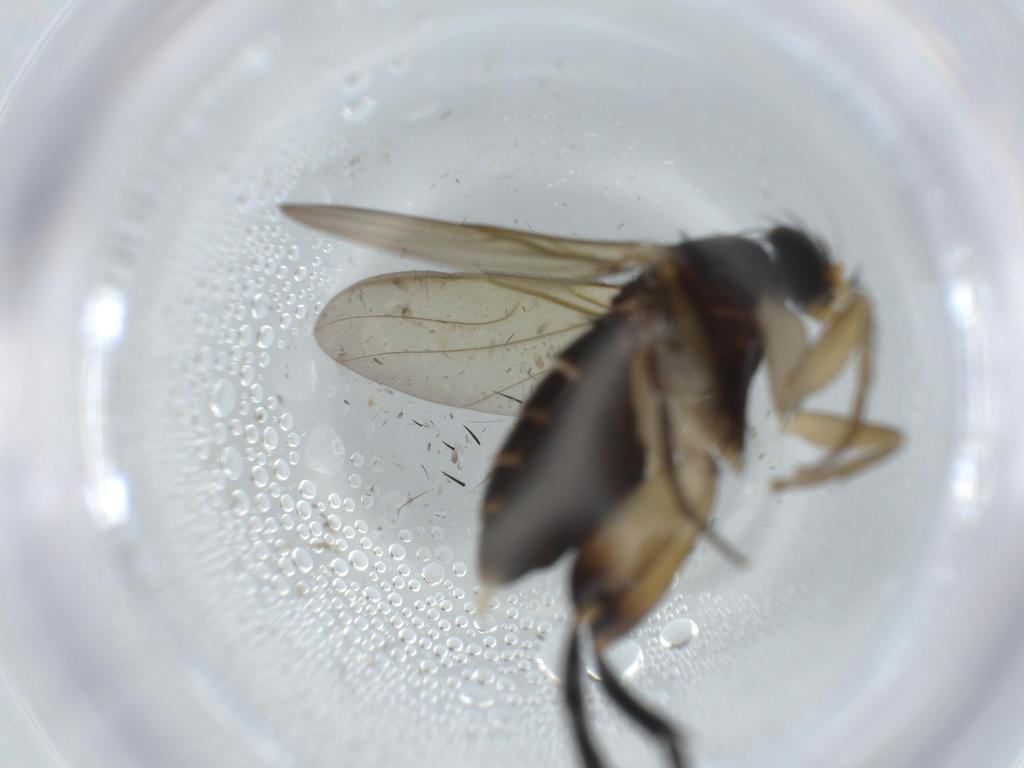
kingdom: Animalia
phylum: Arthropoda
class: Insecta
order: Diptera
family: Phoridae
